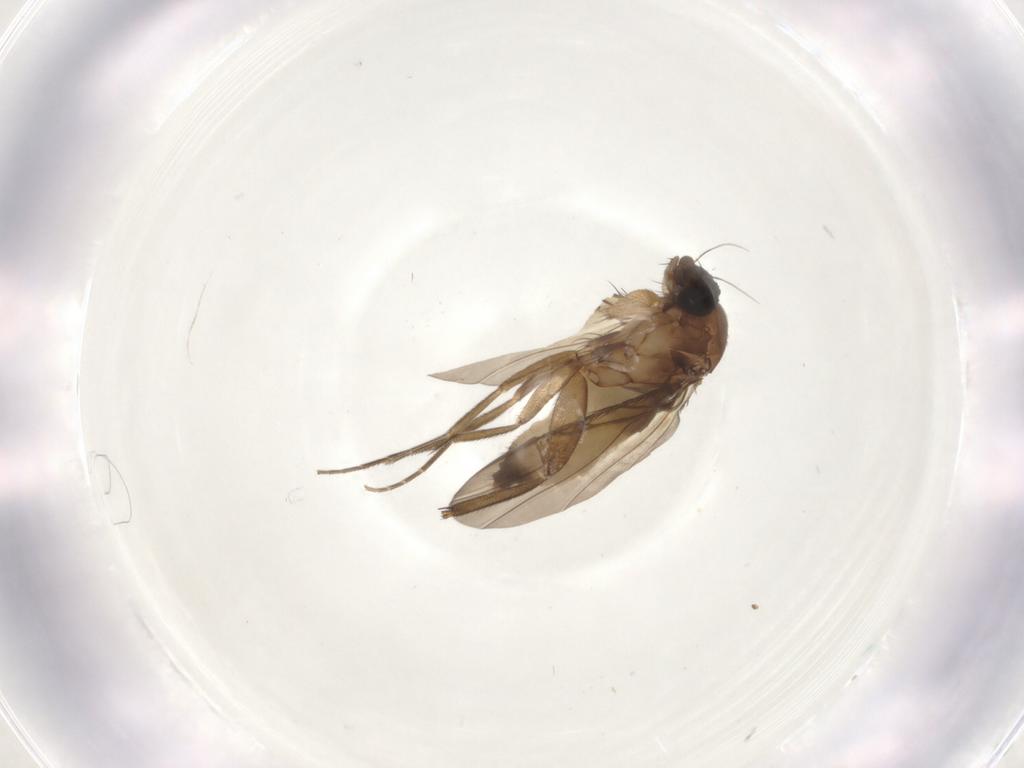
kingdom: Animalia
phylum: Arthropoda
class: Insecta
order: Diptera
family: Phoridae
